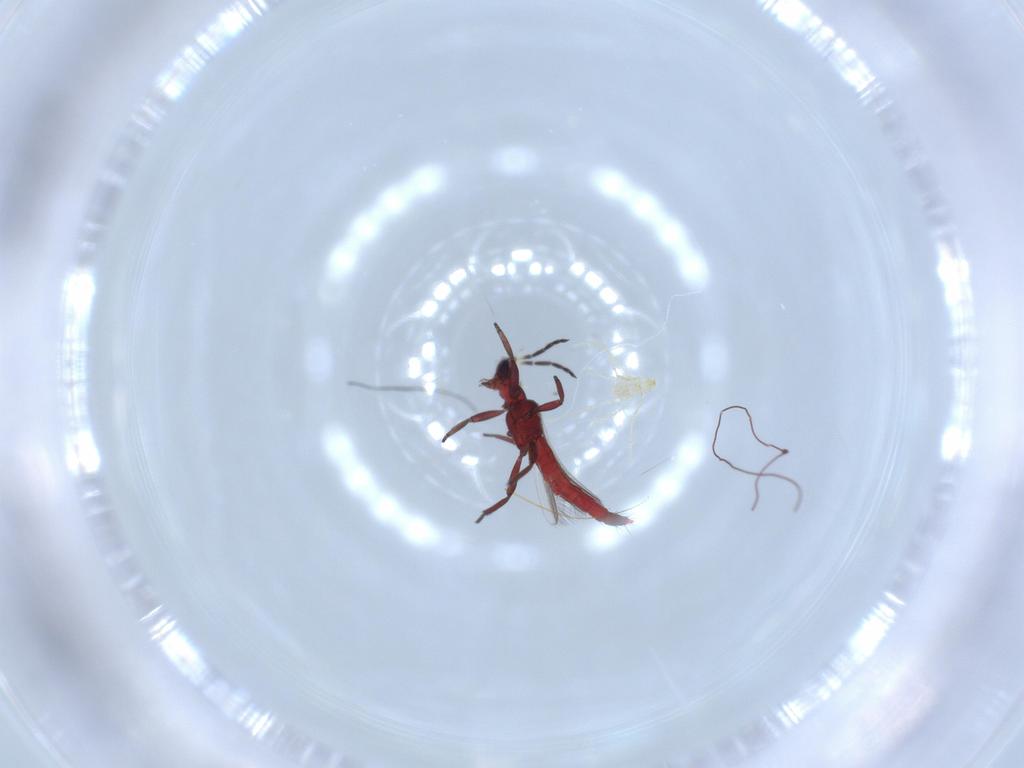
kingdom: Animalia
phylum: Arthropoda
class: Insecta
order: Thysanoptera
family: Aeolothripidae
